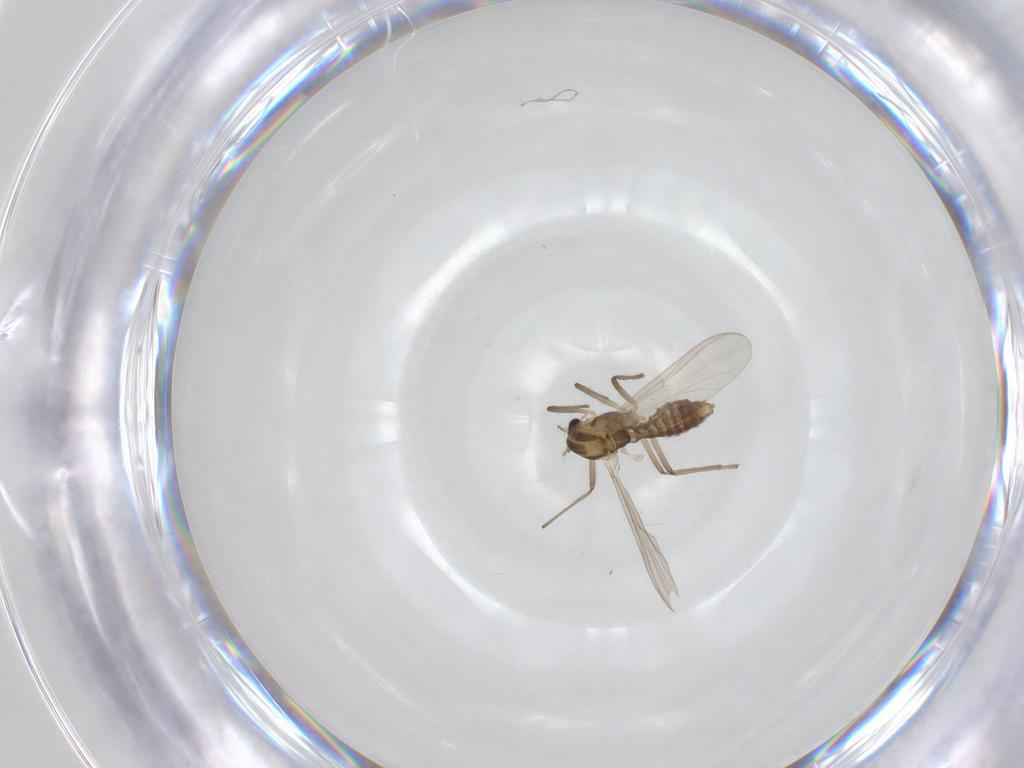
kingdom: Animalia
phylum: Arthropoda
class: Insecta
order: Diptera
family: Chironomidae
